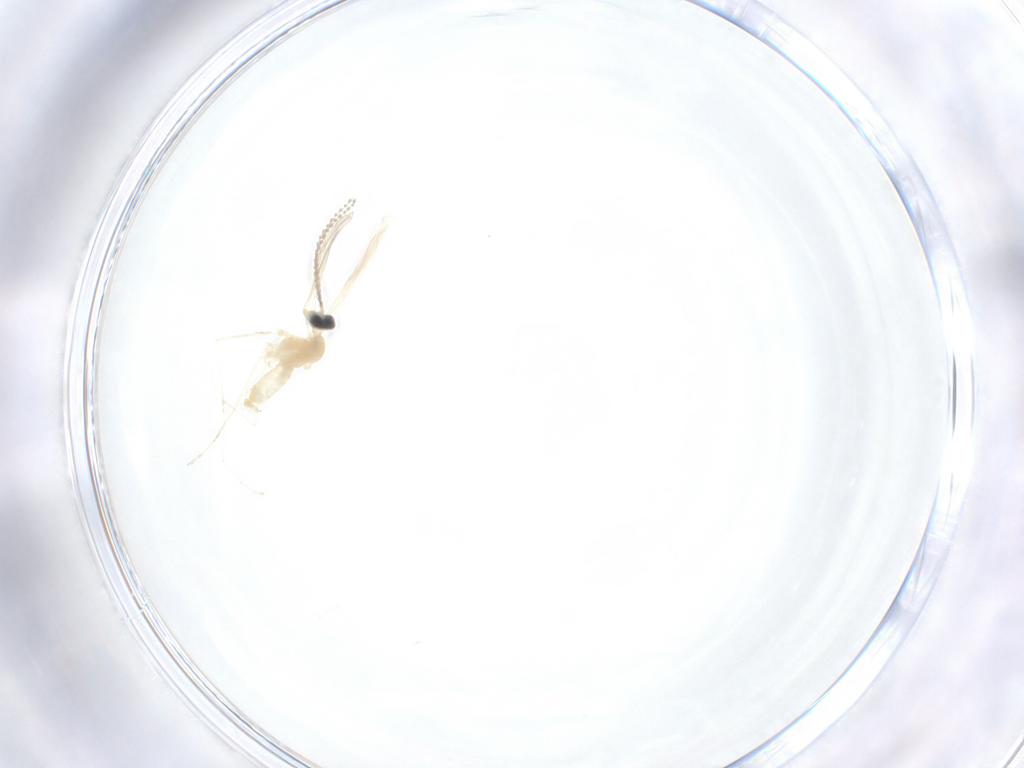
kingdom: Animalia
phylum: Arthropoda
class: Insecta
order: Diptera
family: Cecidomyiidae
